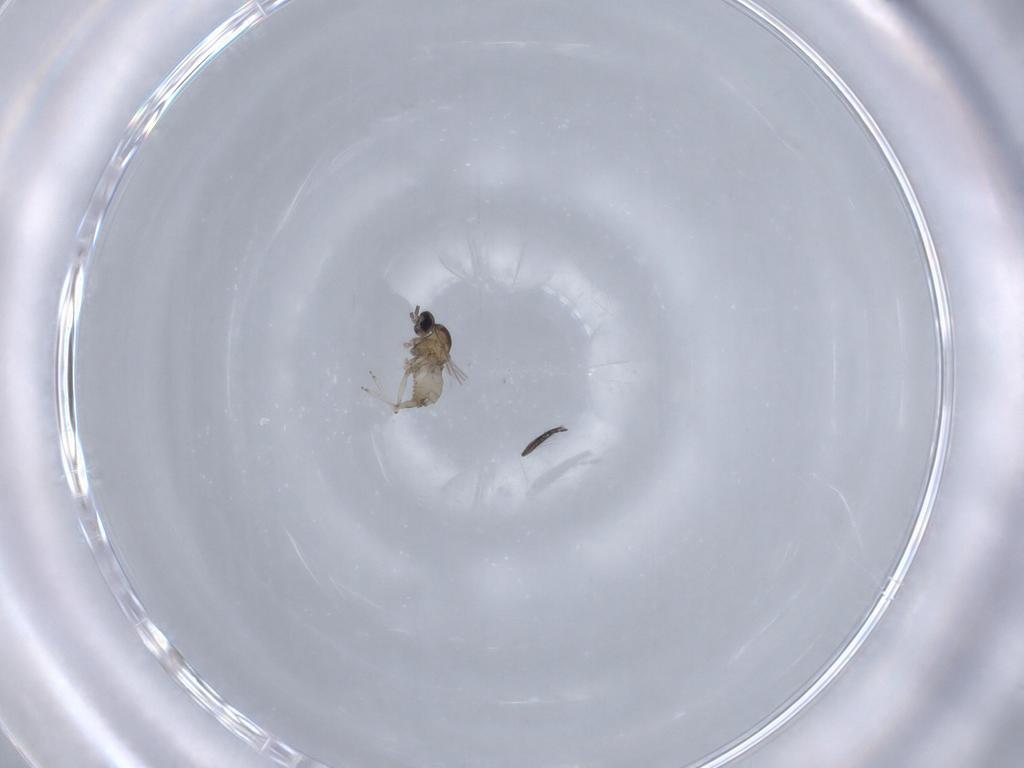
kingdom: Animalia
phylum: Arthropoda
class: Insecta
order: Diptera
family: Cecidomyiidae
